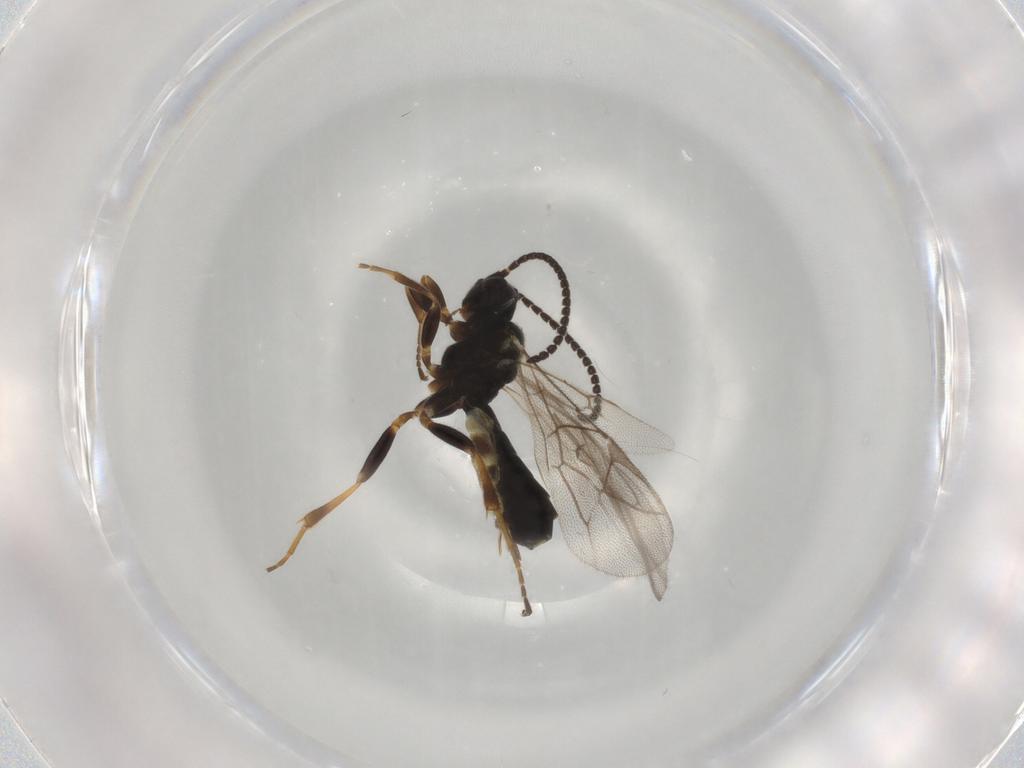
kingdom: Animalia
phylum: Arthropoda
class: Insecta
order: Hymenoptera
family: Ichneumonidae
